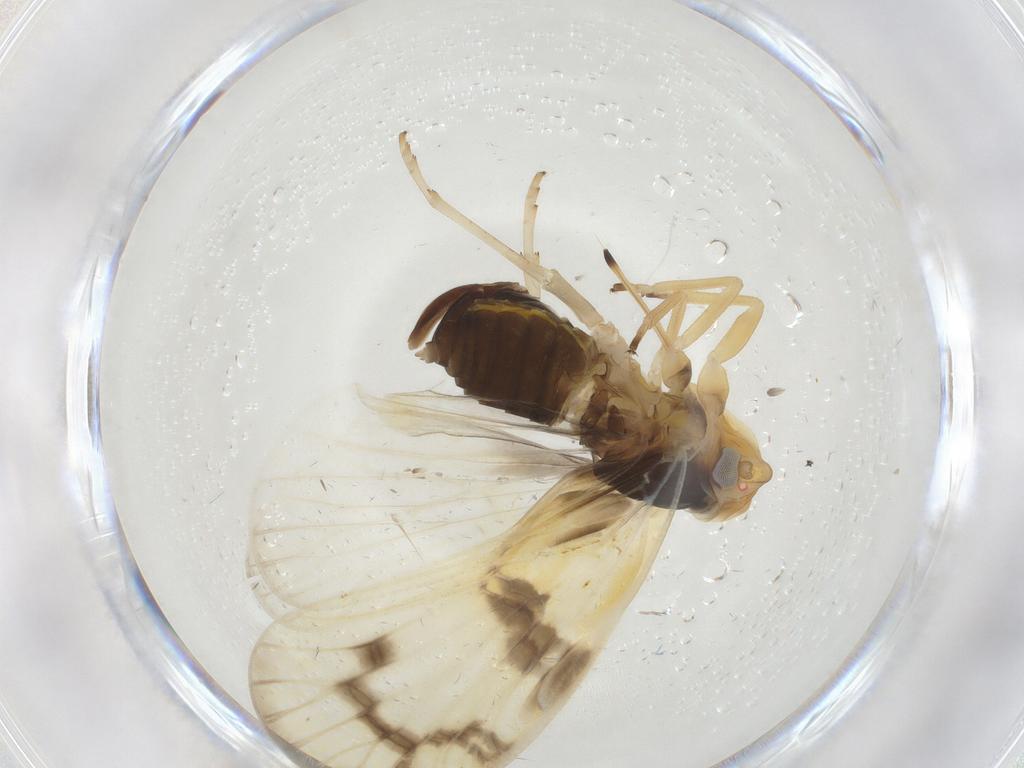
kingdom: Animalia
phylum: Arthropoda
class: Insecta
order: Hemiptera
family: Cixiidae
